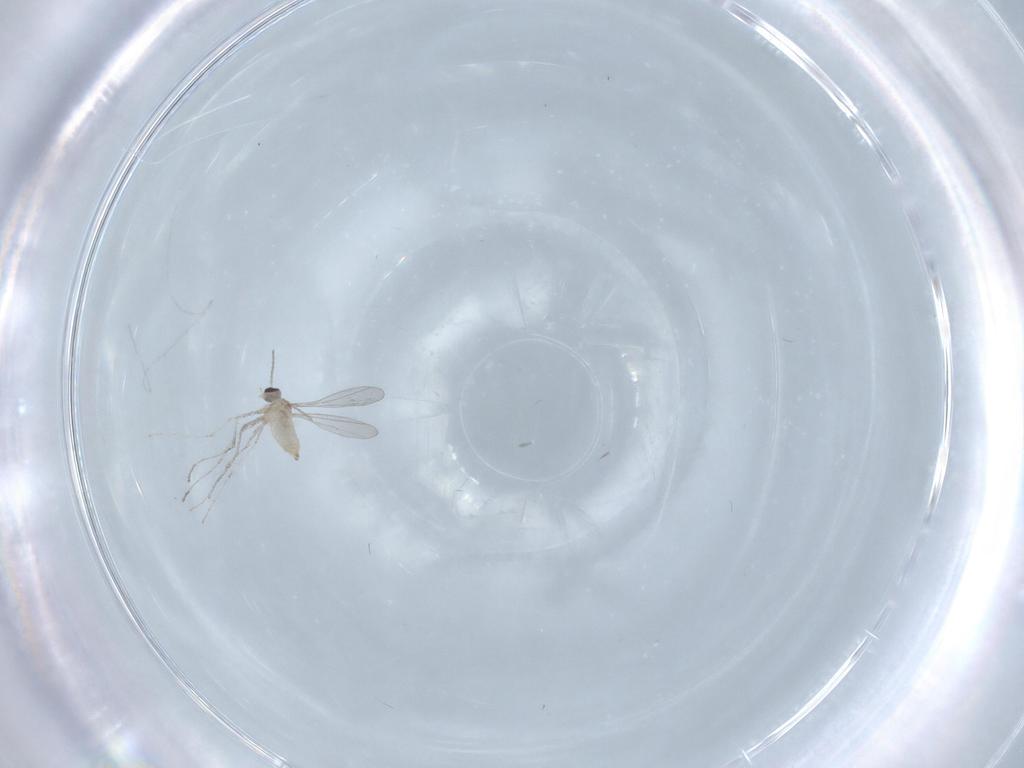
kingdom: Animalia
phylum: Arthropoda
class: Insecta
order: Diptera
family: Cecidomyiidae
